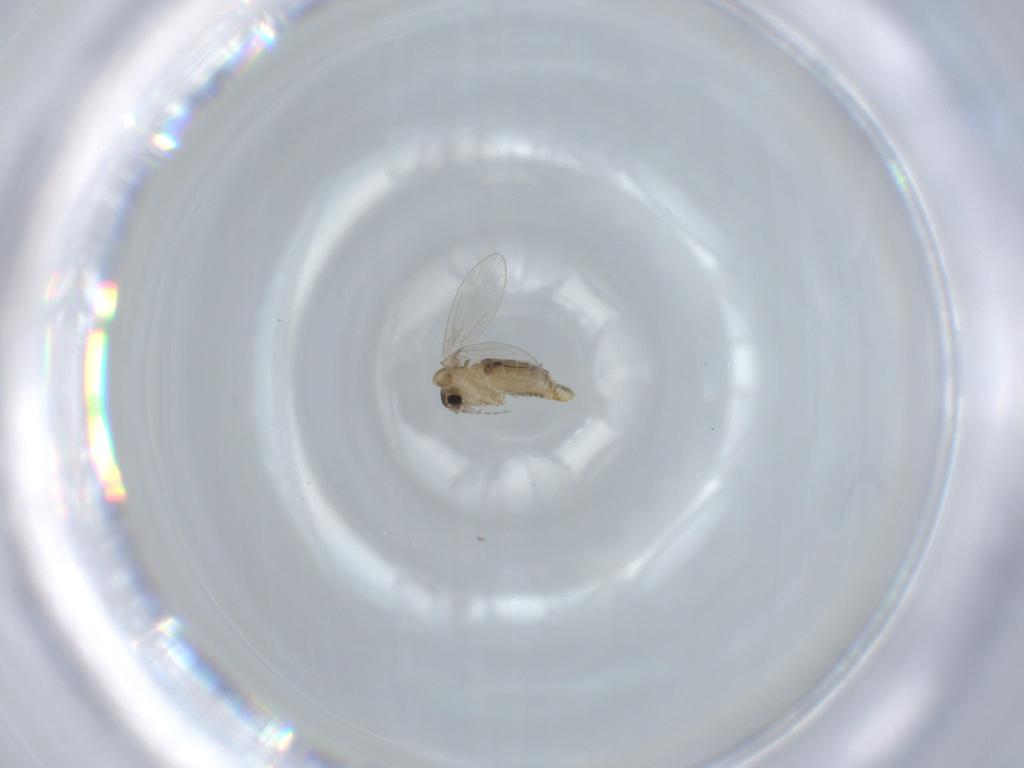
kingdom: Animalia
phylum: Arthropoda
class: Insecta
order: Diptera
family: Psychodidae
